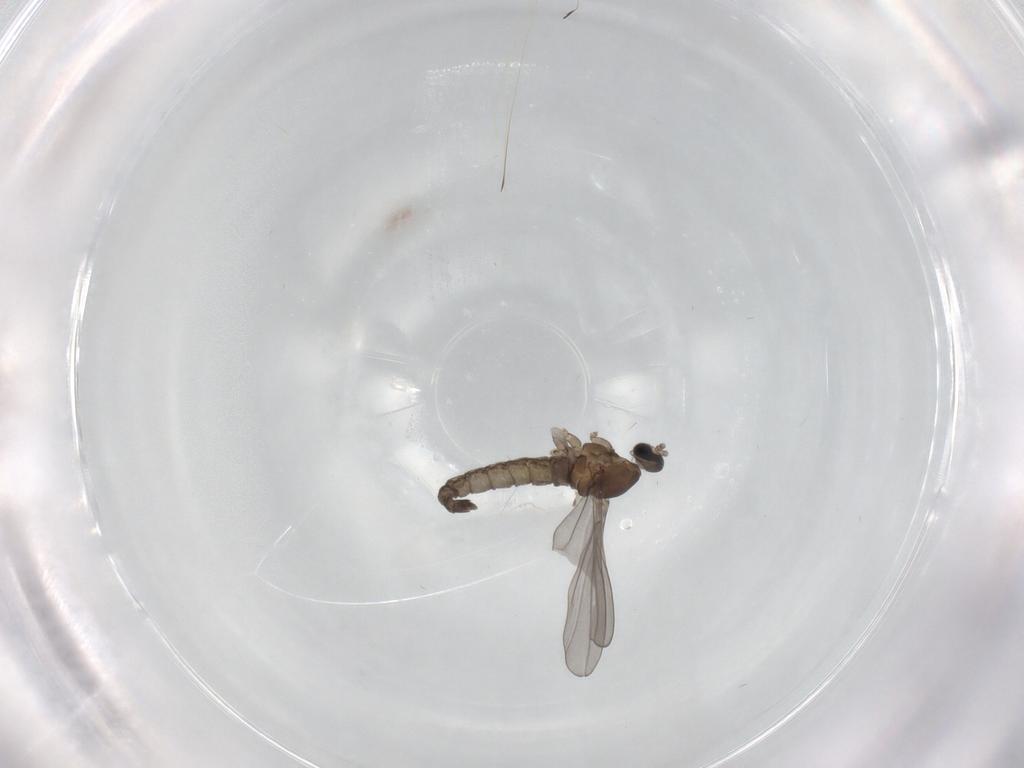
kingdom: Animalia
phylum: Arthropoda
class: Insecta
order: Diptera
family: Cecidomyiidae
